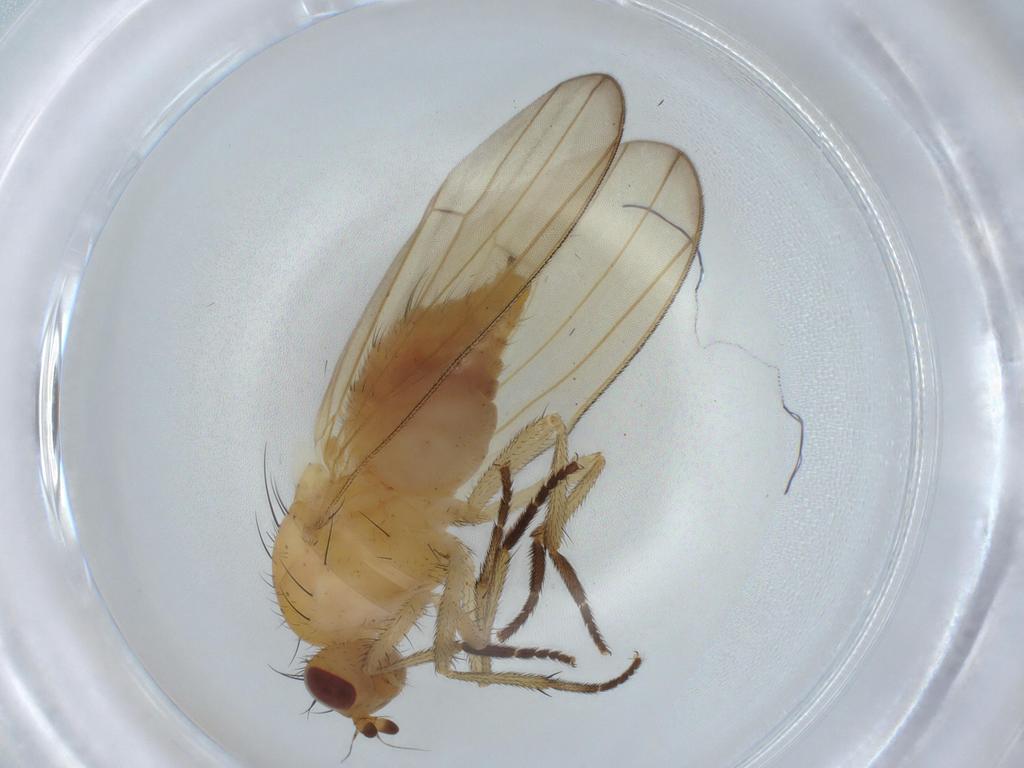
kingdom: Animalia
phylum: Arthropoda
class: Insecta
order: Diptera
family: Lauxaniidae
